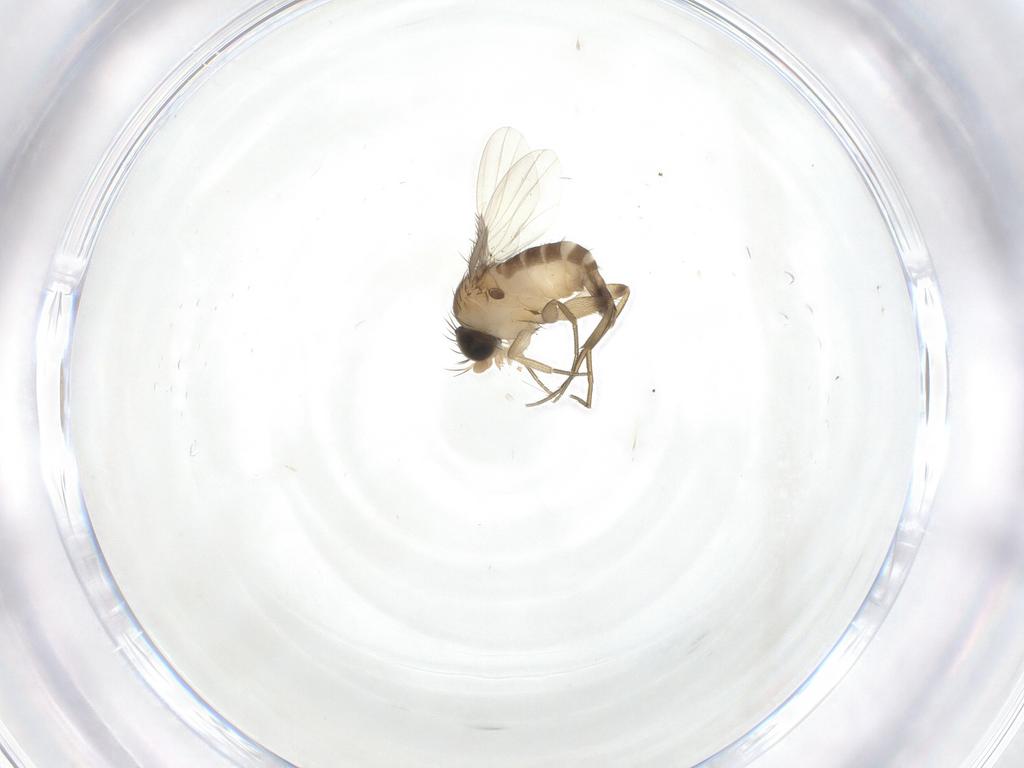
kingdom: Animalia
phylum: Arthropoda
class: Insecta
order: Diptera
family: Phoridae
